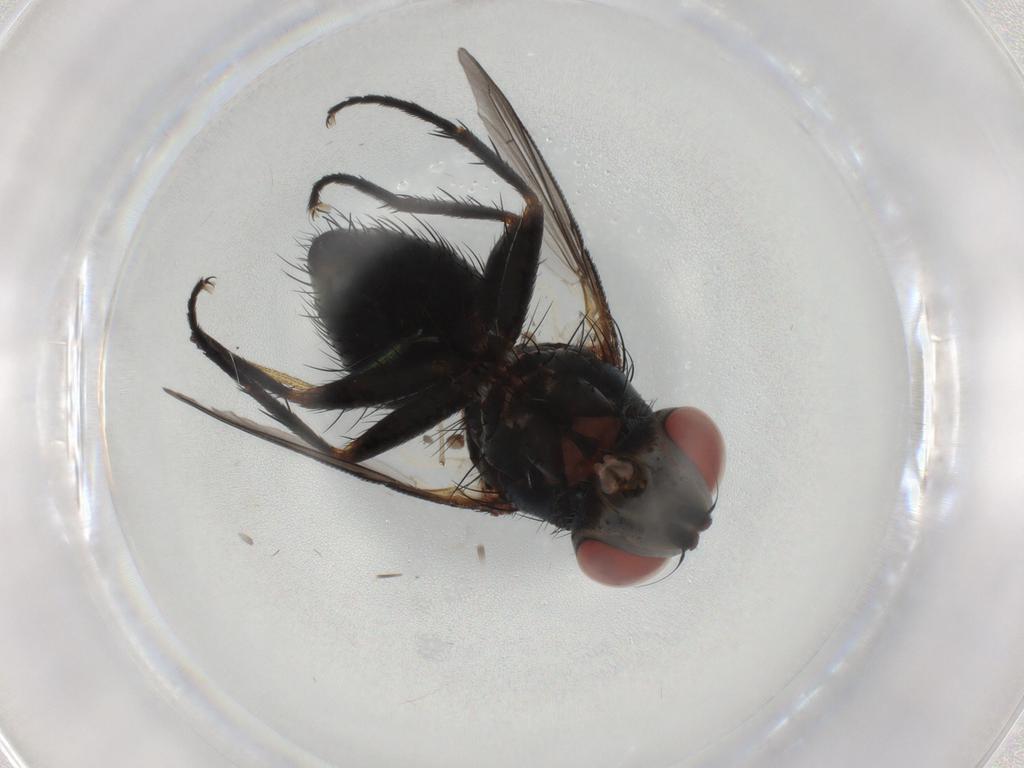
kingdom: Animalia
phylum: Arthropoda
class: Insecta
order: Diptera
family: Tachinidae
